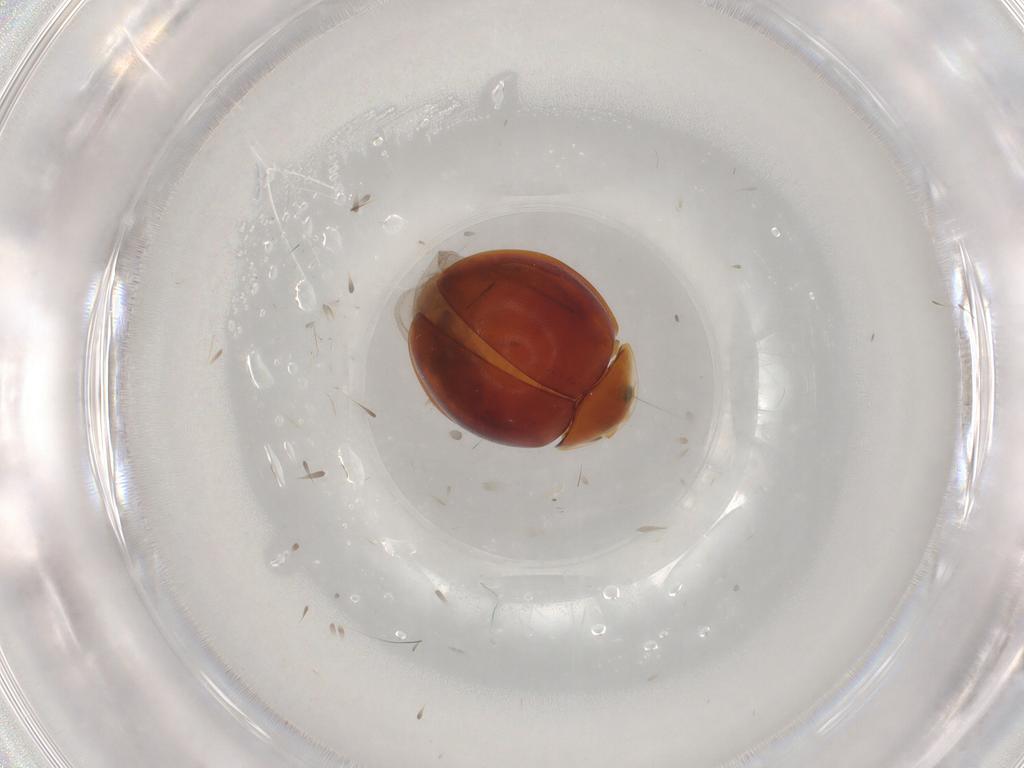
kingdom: Animalia
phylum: Arthropoda
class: Insecta
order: Coleoptera
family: Corylophidae
